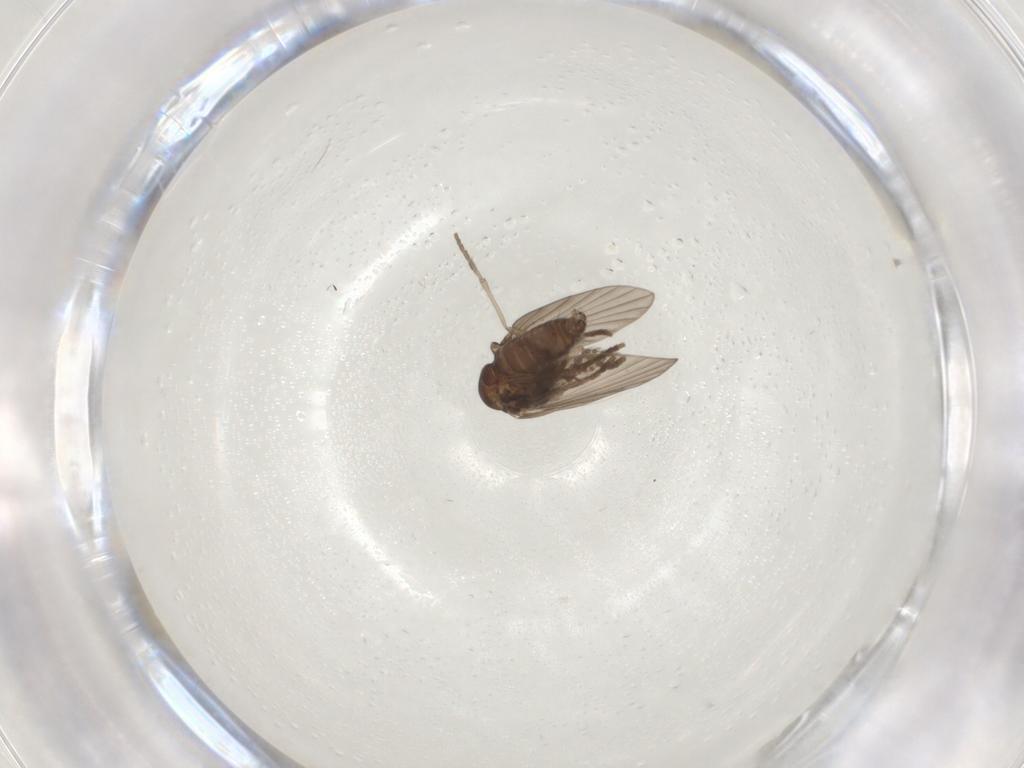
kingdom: Animalia
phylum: Arthropoda
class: Insecta
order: Diptera
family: Psychodidae
